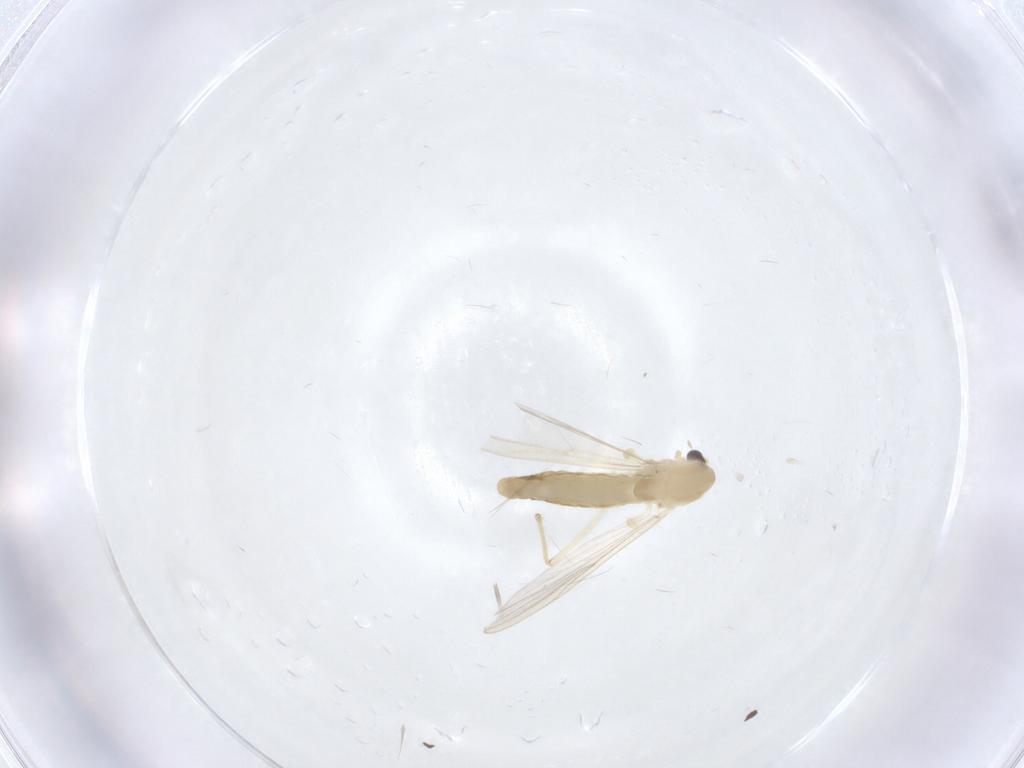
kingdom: Animalia
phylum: Arthropoda
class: Insecta
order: Diptera
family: Chironomidae
